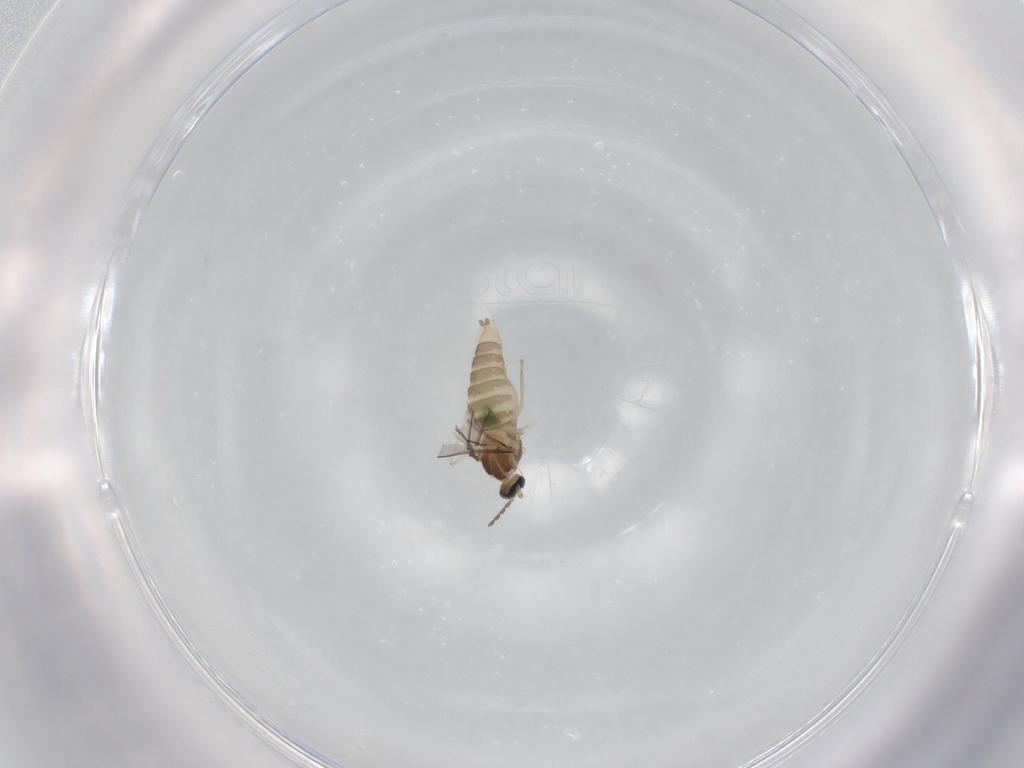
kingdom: Animalia
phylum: Arthropoda
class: Insecta
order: Diptera
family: Cecidomyiidae
